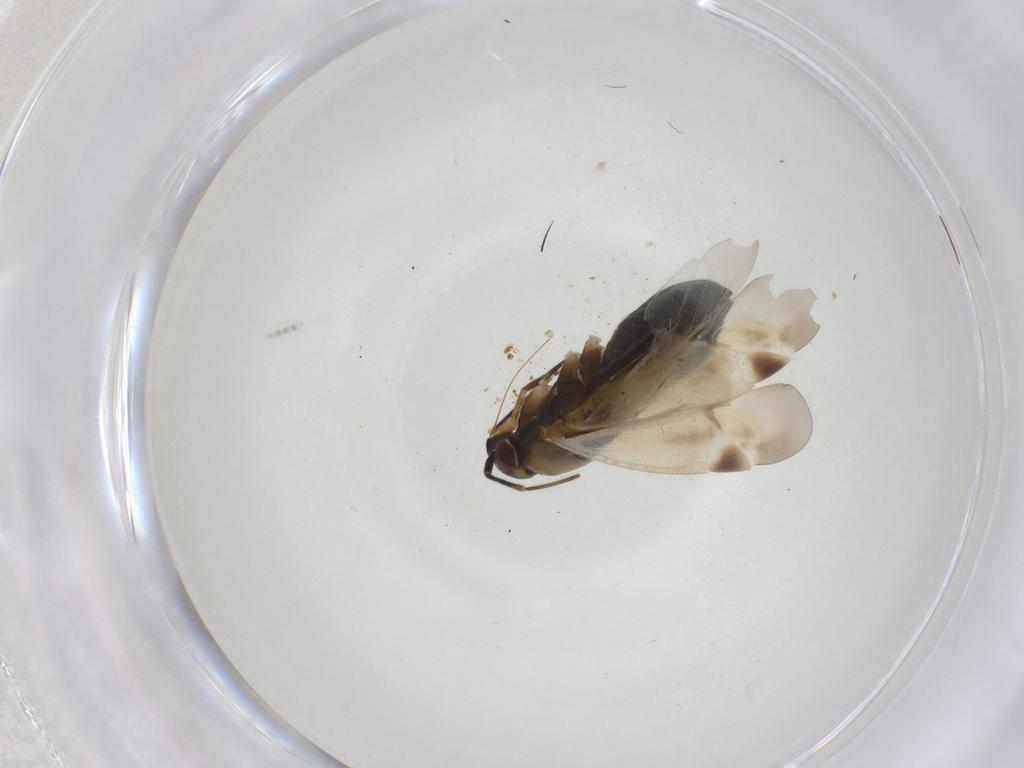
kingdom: Animalia
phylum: Arthropoda
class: Insecta
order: Hemiptera
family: Miridae
